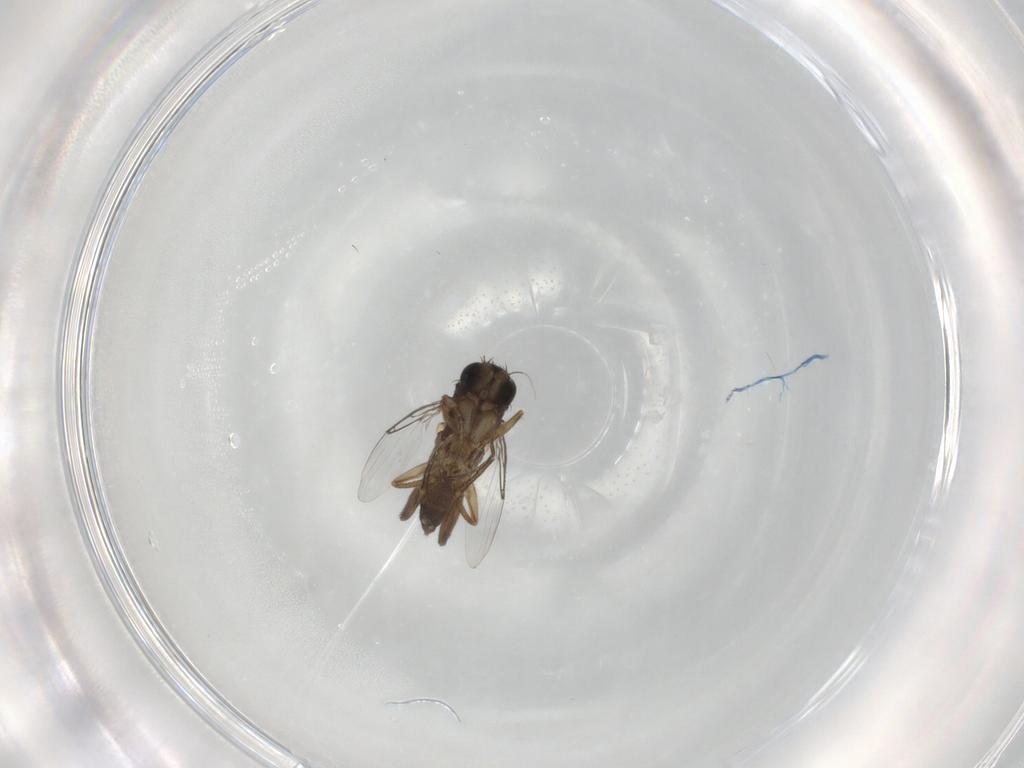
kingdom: Animalia
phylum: Arthropoda
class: Insecta
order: Diptera
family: Phoridae
